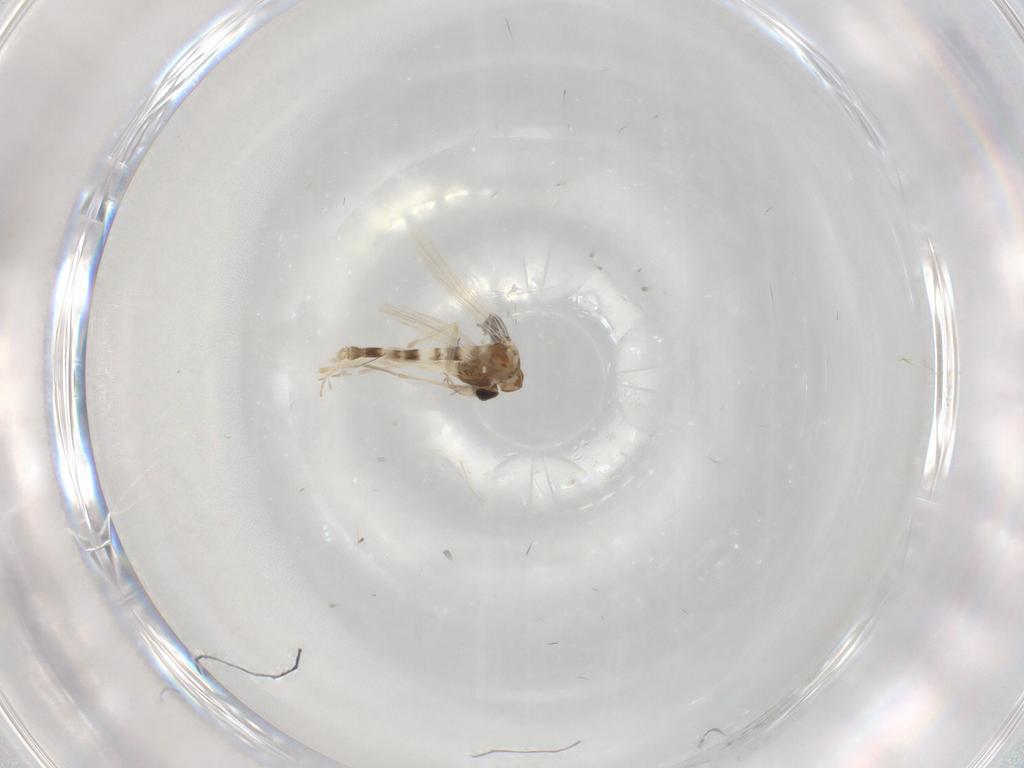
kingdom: Animalia
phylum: Arthropoda
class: Insecta
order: Diptera
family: Chironomidae
